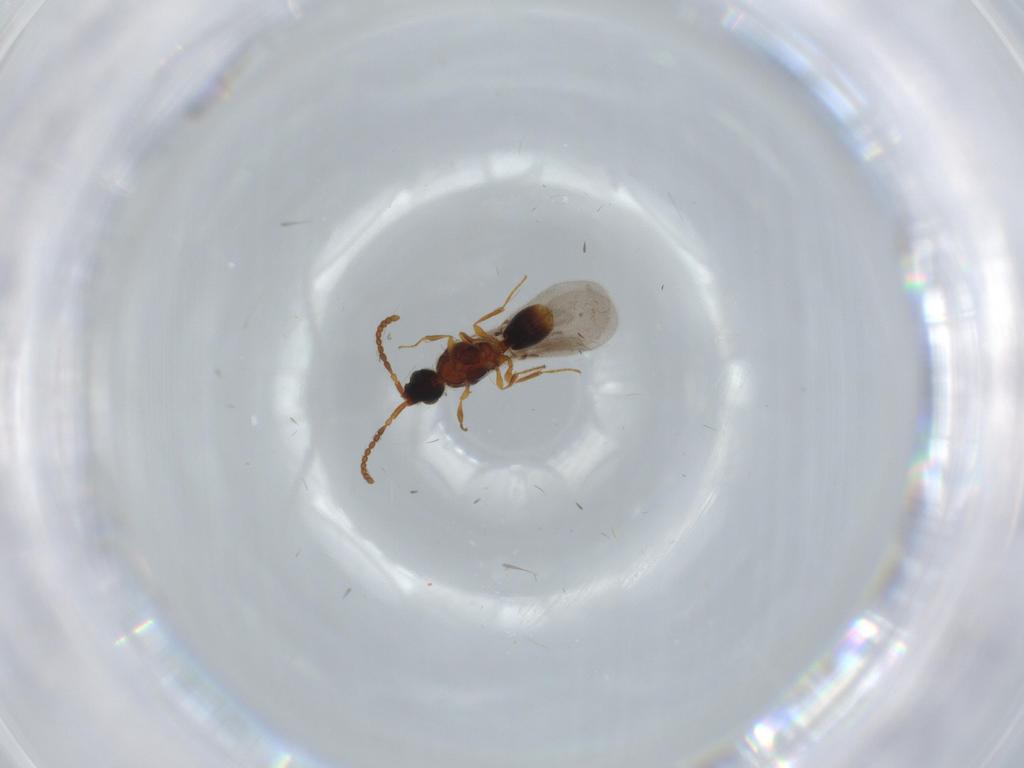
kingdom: Animalia
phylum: Arthropoda
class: Insecta
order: Hymenoptera
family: Diapriidae
